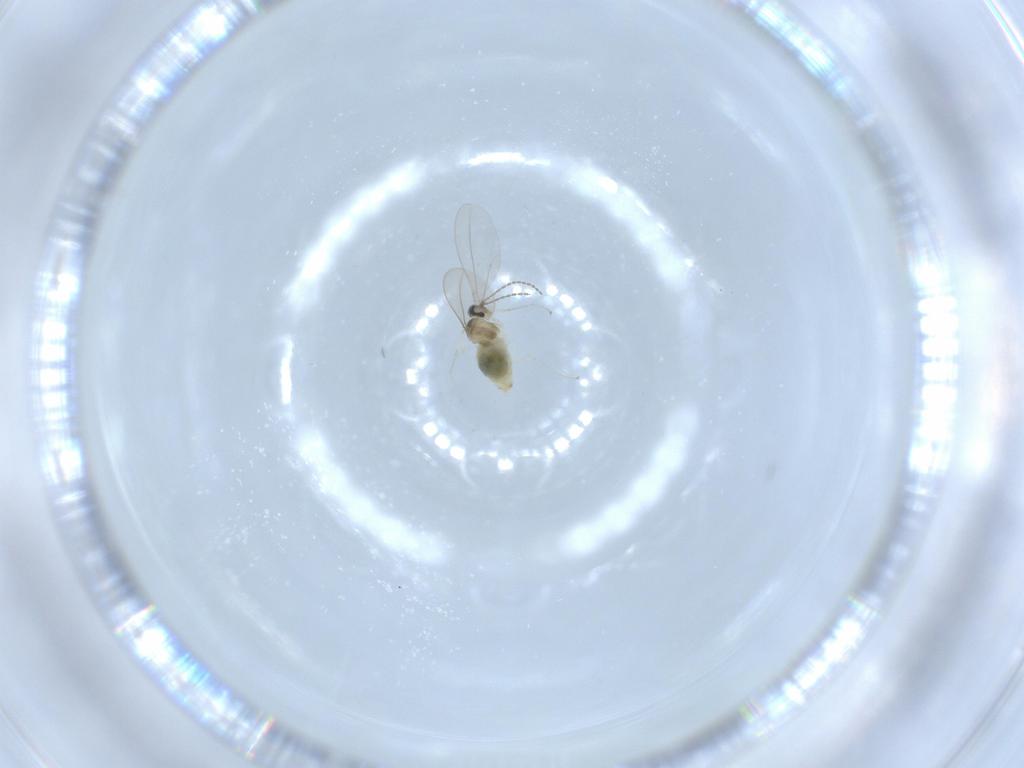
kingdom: Animalia
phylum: Arthropoda
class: Insecta
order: Diptera
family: Cecidomyiidae
